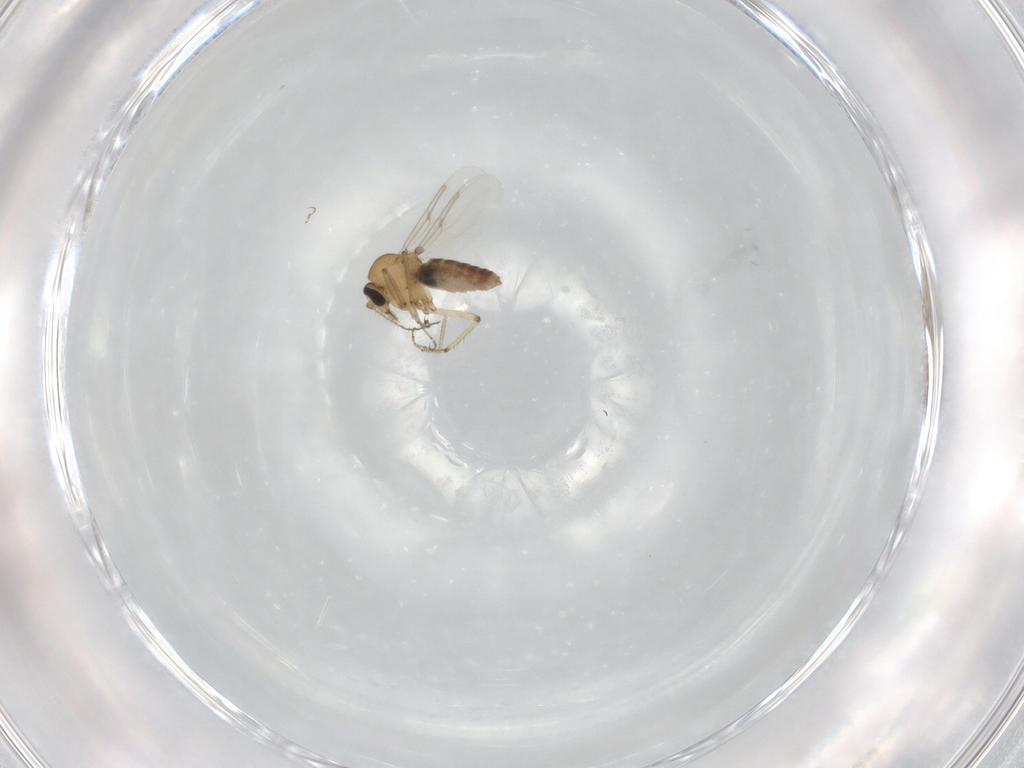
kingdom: Animalia
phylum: Arthropoda
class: Insecta
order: Diptera
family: Ceratopogonidae
